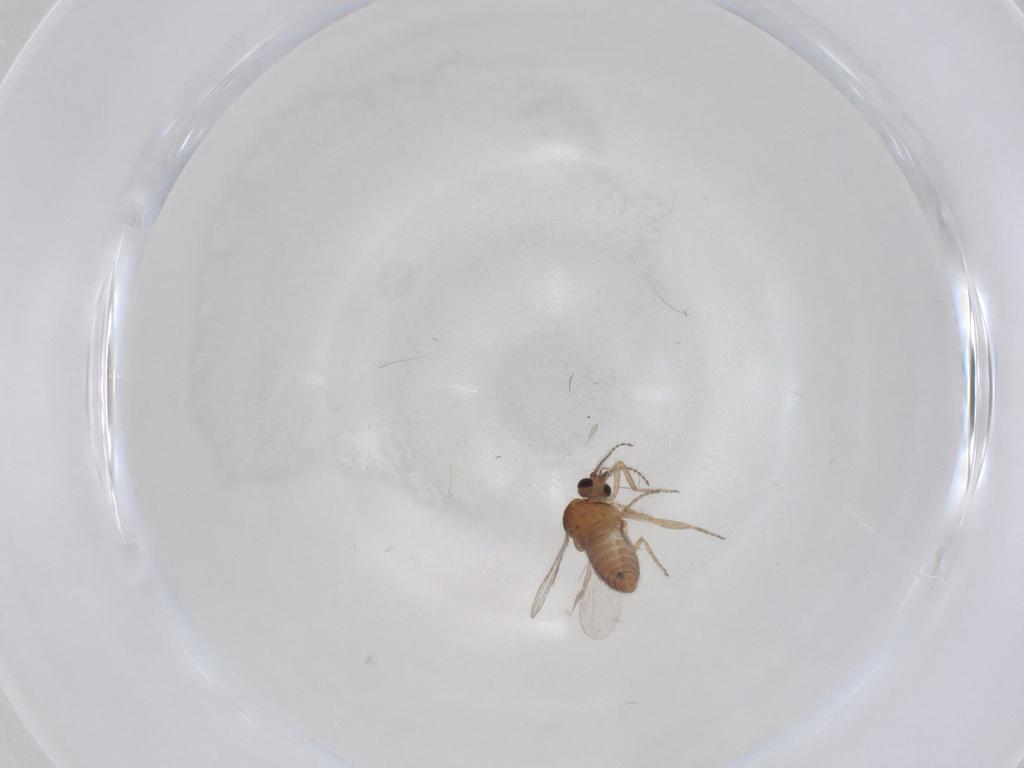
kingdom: Animalia
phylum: Arthropoda
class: Insecta
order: Diptera
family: Ceratopogonidae
